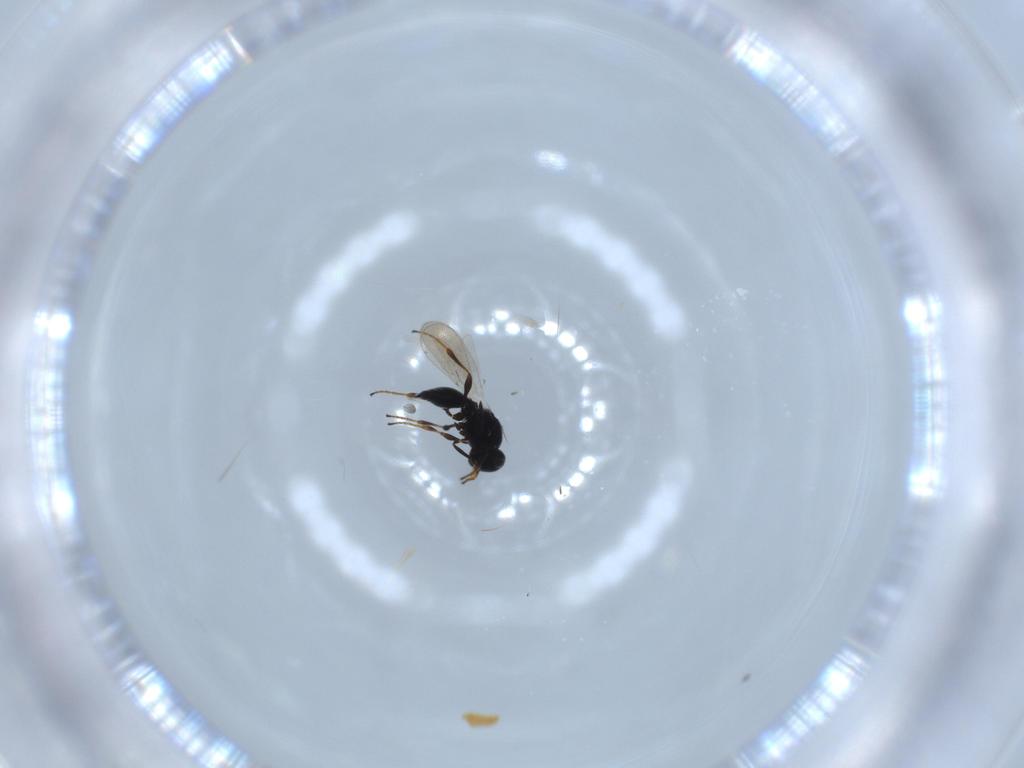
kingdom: Animalia
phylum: Arthropoda
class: Insecta
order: Hymenoptera
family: Platygastridae
